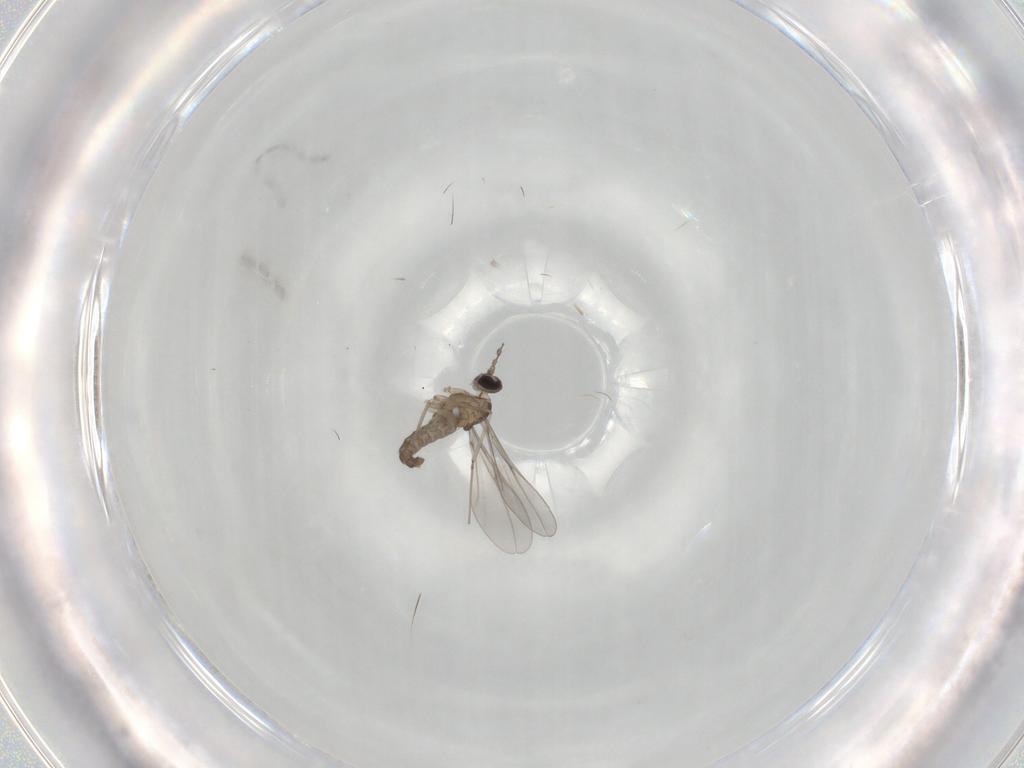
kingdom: Animalia
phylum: Arthropoda
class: Insecta
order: Diptera
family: Cecidomyiidae
